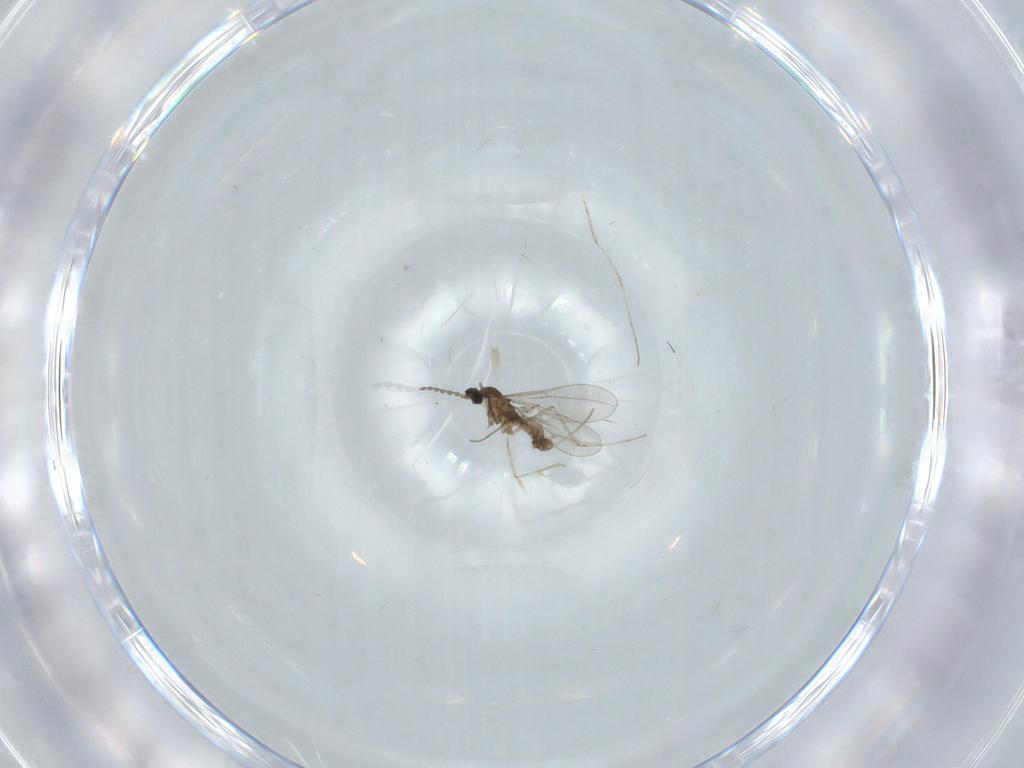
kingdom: Animalia
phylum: Arthropoda
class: Insecta
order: Diptera
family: Cecidomyiidae
